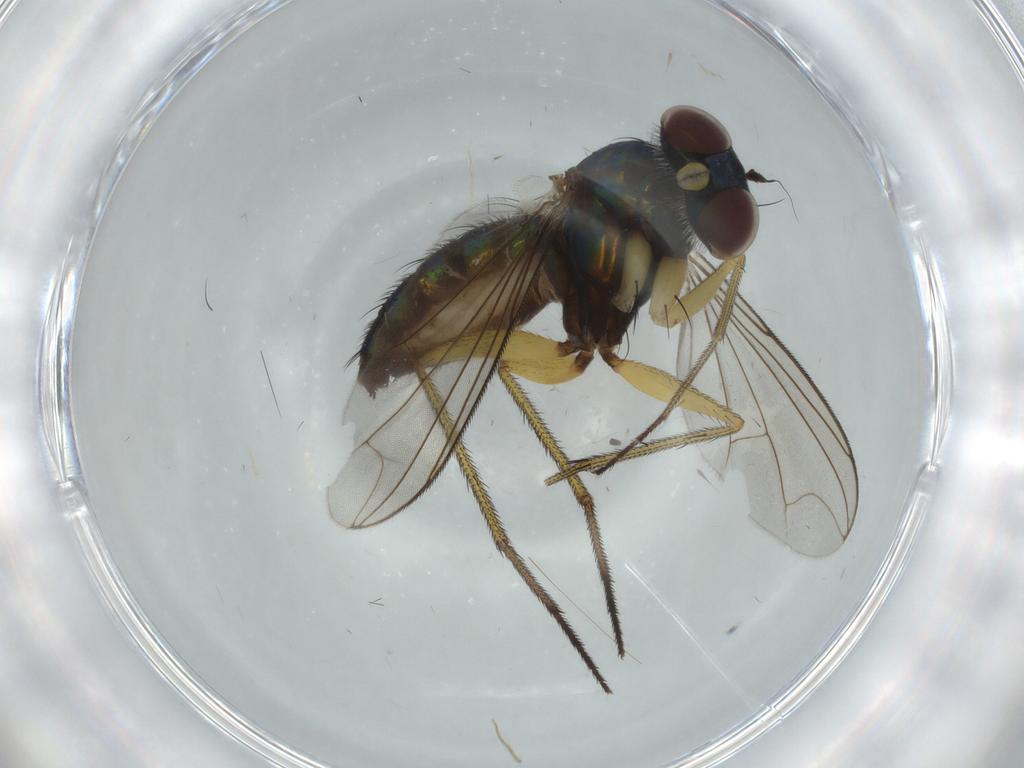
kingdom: Animalia
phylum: Arthropoda
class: Insecta
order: Diptera
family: Dolichopodidae
